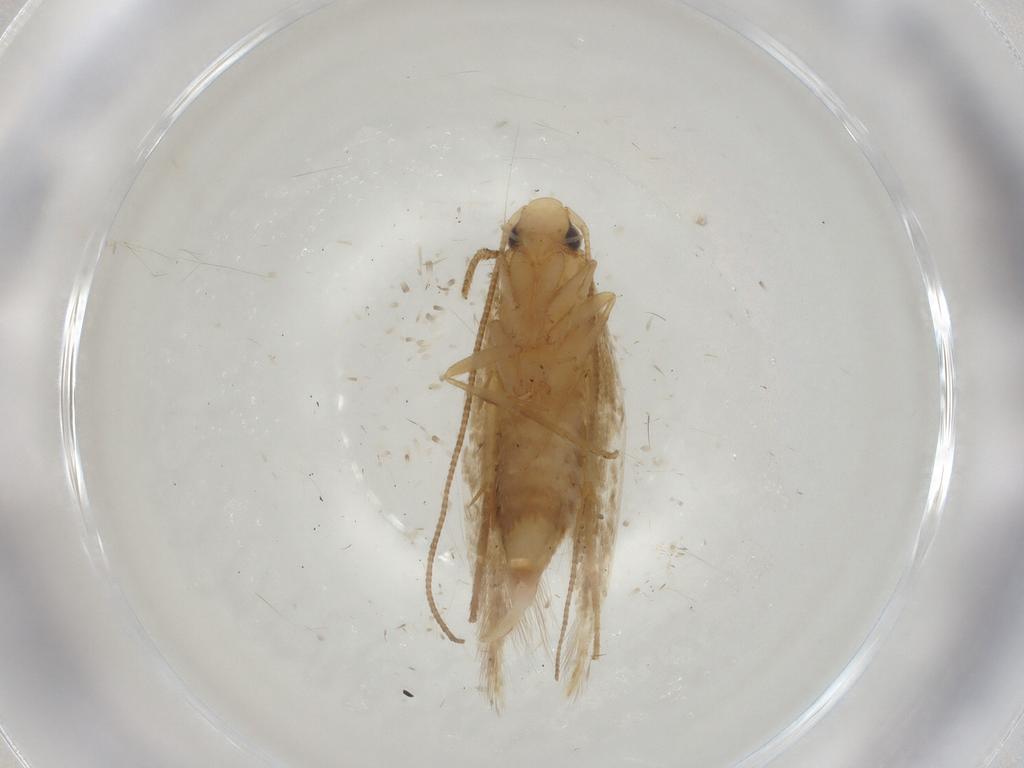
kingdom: Animalia
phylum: Arthropoda
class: Insecta
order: Lepidoptera
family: Tineidae
